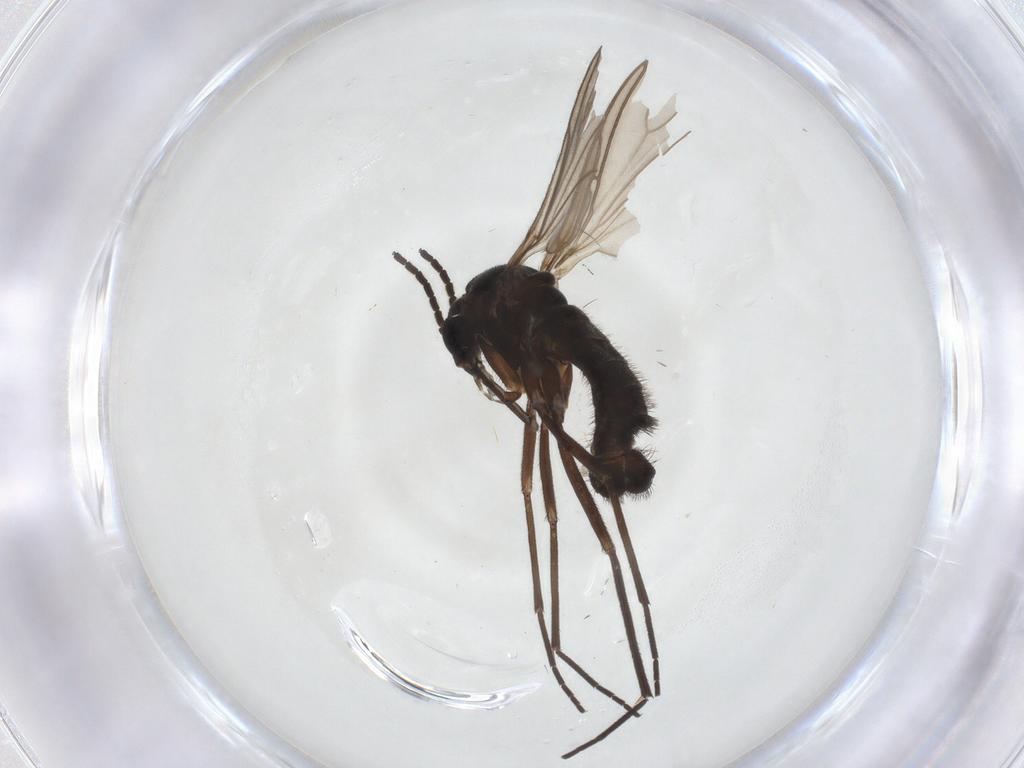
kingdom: Animalia
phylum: Arthropoda
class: Insecta
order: Diptera
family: Sciaridae
